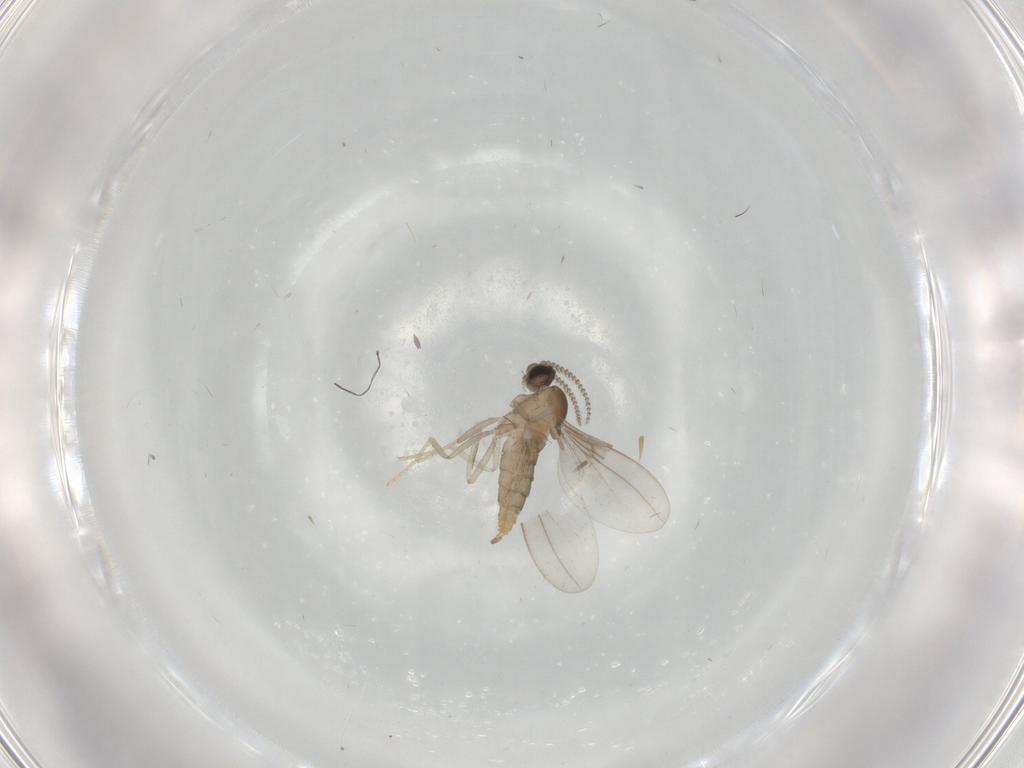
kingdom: Animalia
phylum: Arthropoda
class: Insecta
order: Diptera
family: Cecidomyiidae
